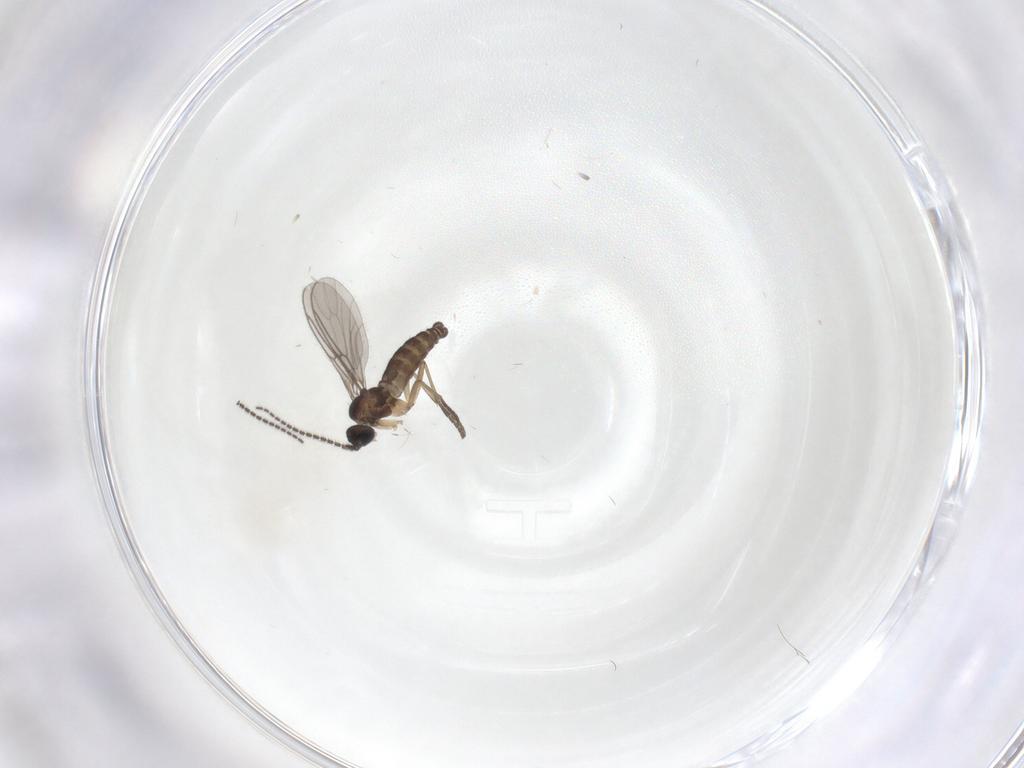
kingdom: Animalia
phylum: Arthropoda
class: Insecta
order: Diptera
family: Sciaridae
